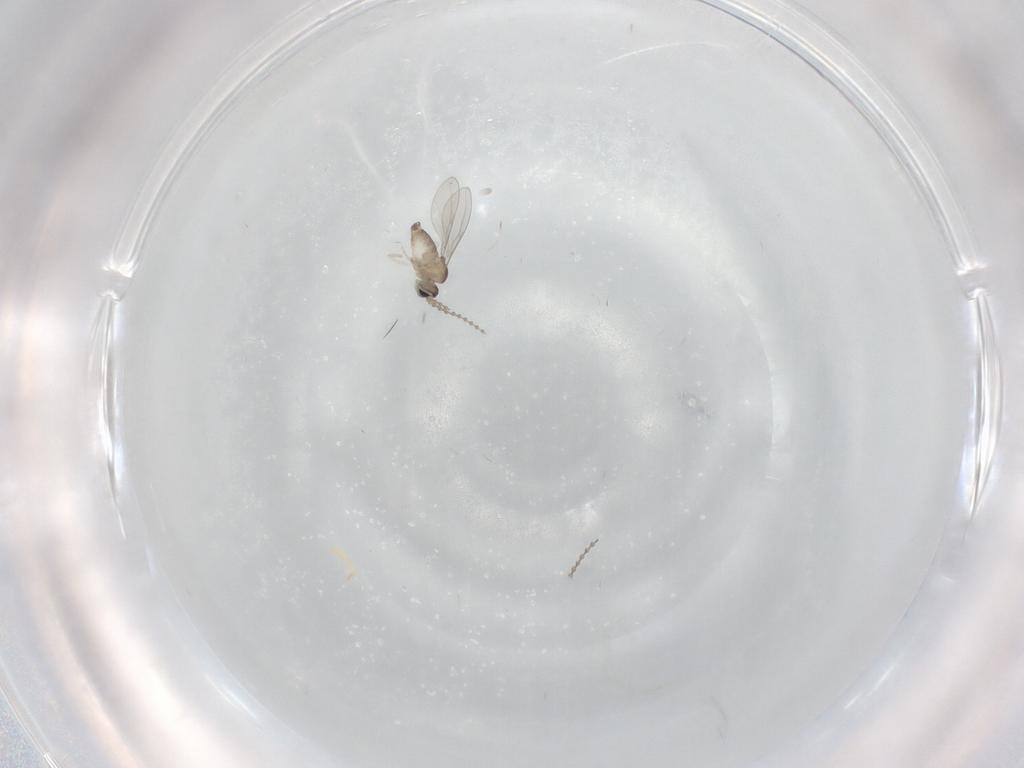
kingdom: Animalia
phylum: Arthropoda
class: Insecta
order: Diptera
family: Cecidomyiidae
